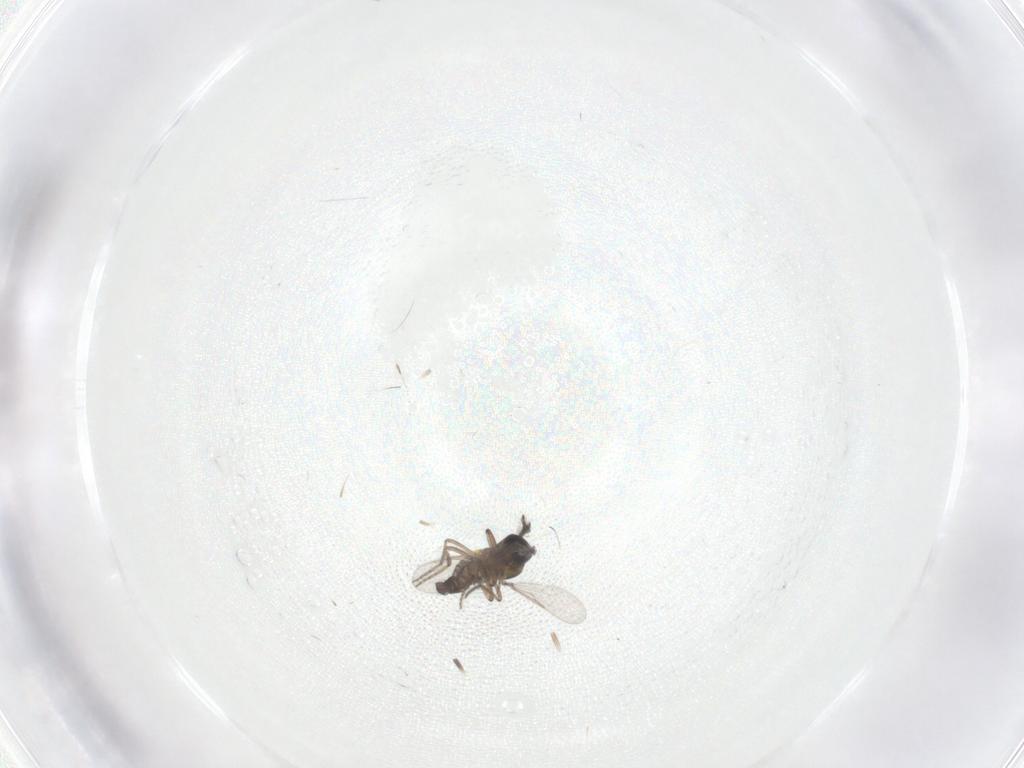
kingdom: Animalia
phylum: Arthropoda
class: Insecta
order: Diptera
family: Ceratopogonidae
